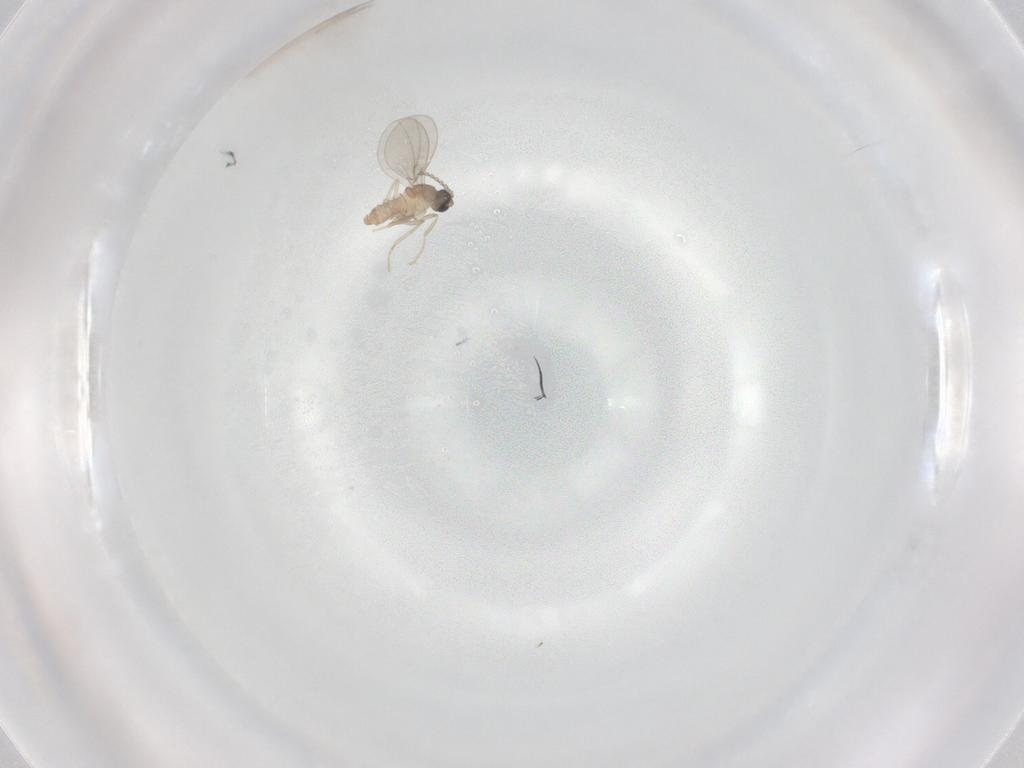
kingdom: Animalia
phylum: Arthropoda
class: Insecta
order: Diptera
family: Cecidomyiidae
